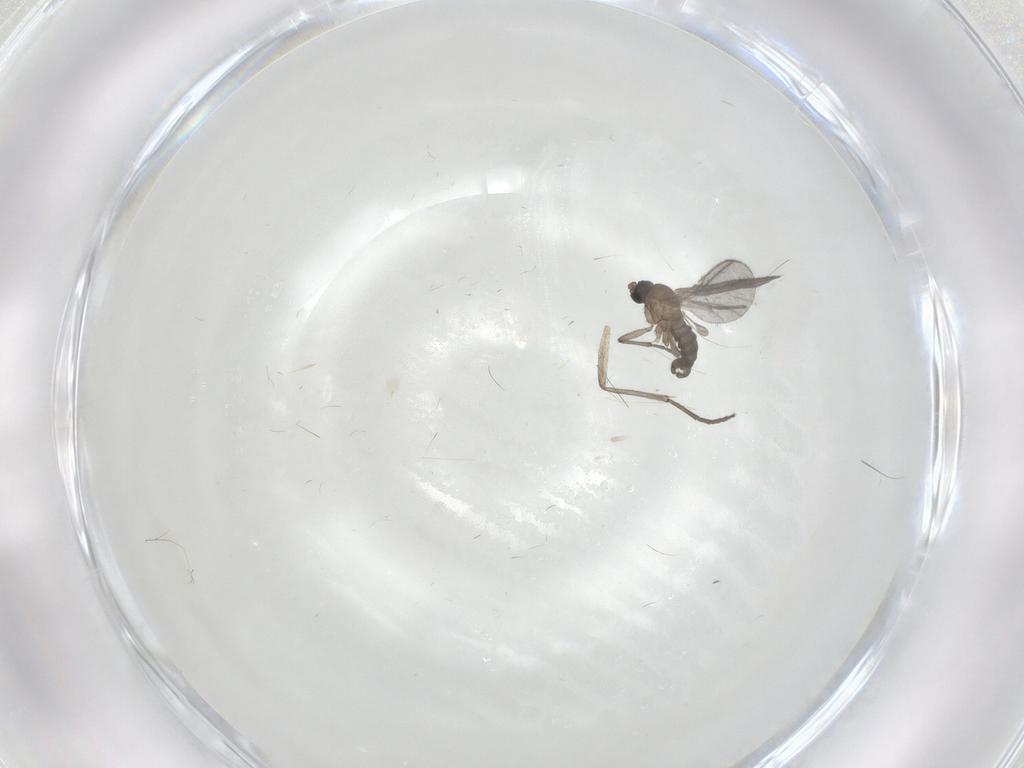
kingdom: Animalia
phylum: Arthropoda
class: Insecta
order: Diptera
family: Sciaridae
